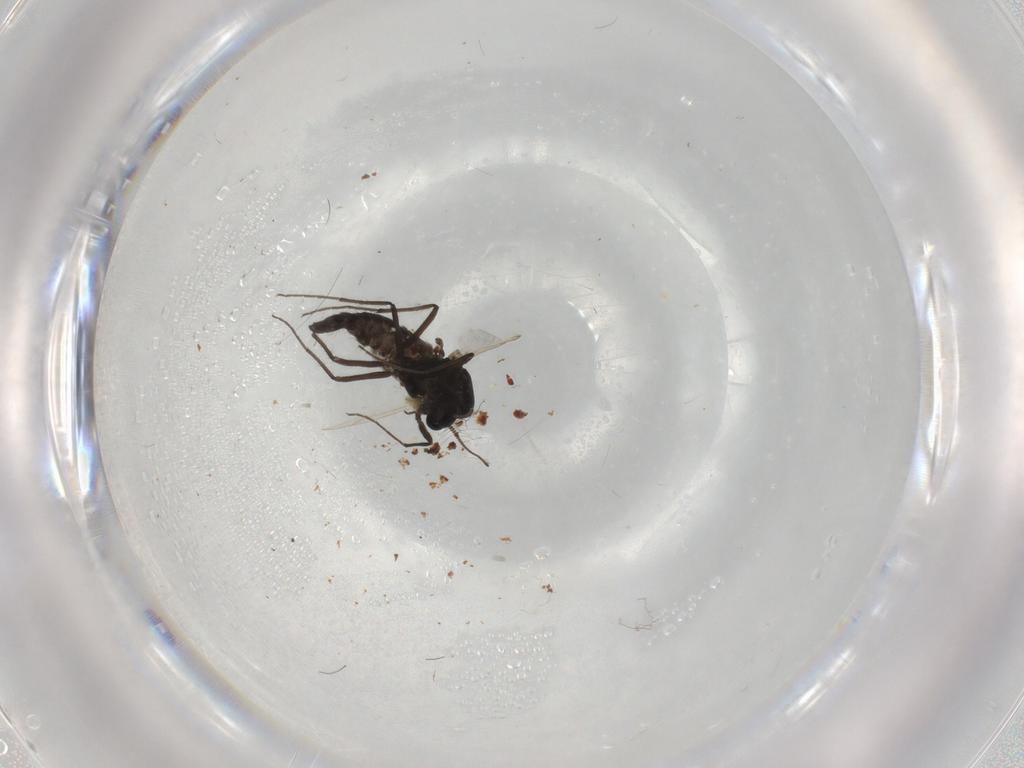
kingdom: Animalia
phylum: Arthropoda
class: Insecta
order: Diptera
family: Muscidae
